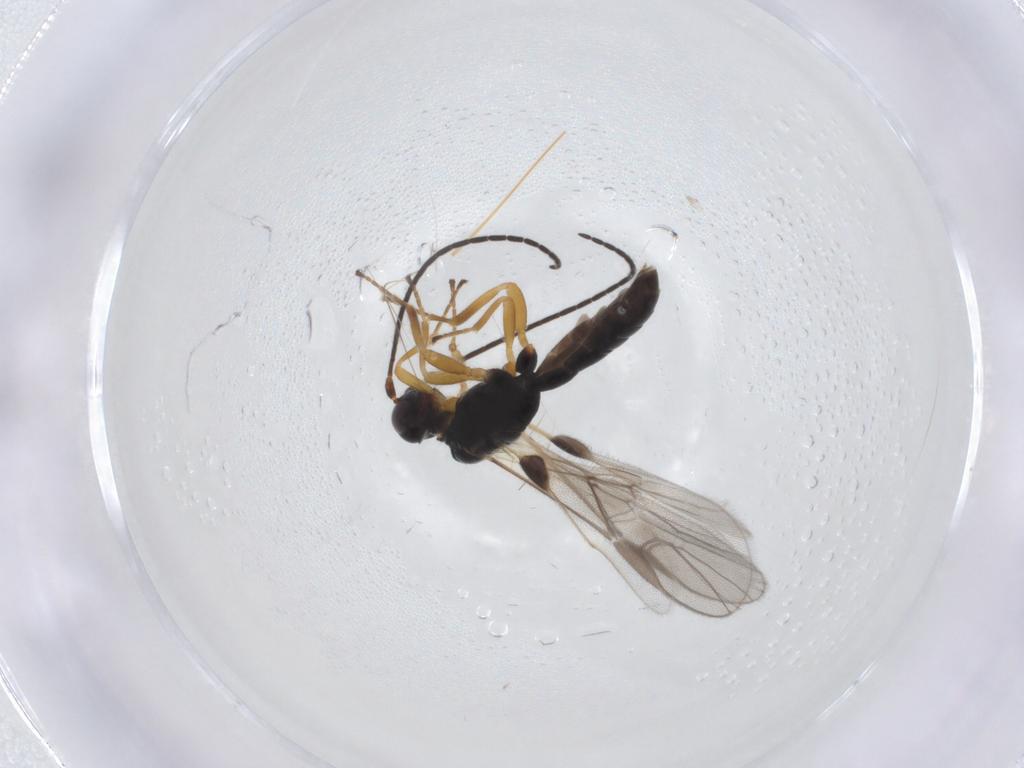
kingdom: Animalia
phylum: Arthropoda
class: Insecta
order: Hymenoptera
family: Braconidae
